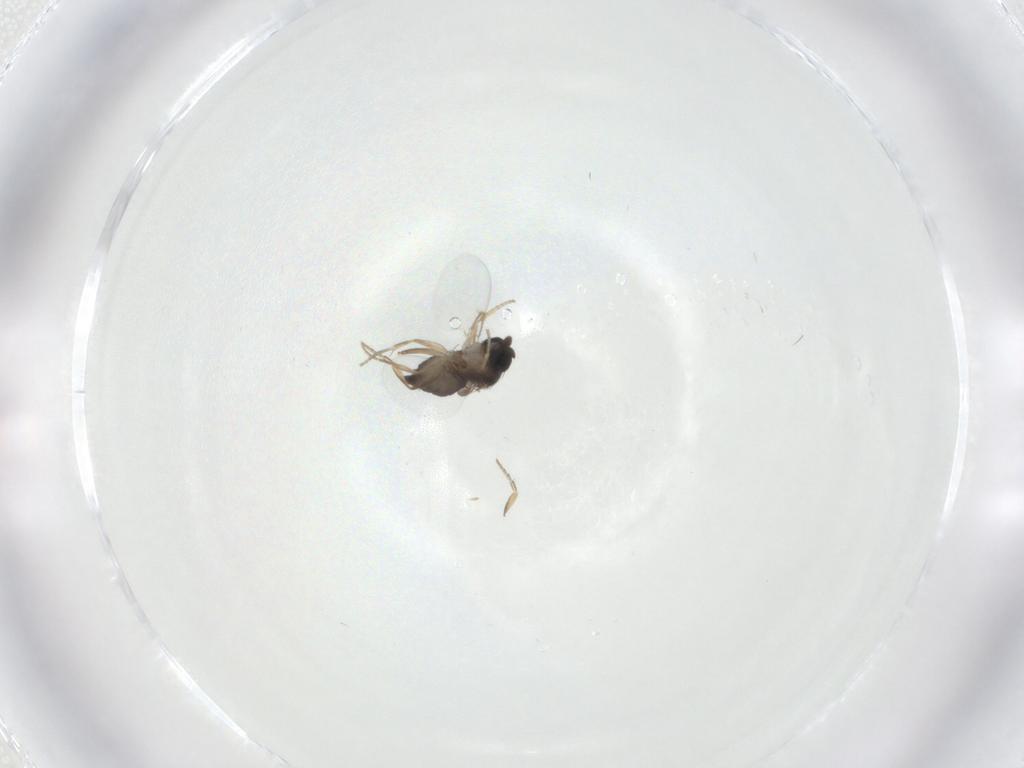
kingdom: Animalia
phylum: Arthropoda
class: Insecta
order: Diptera
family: Phoridae
